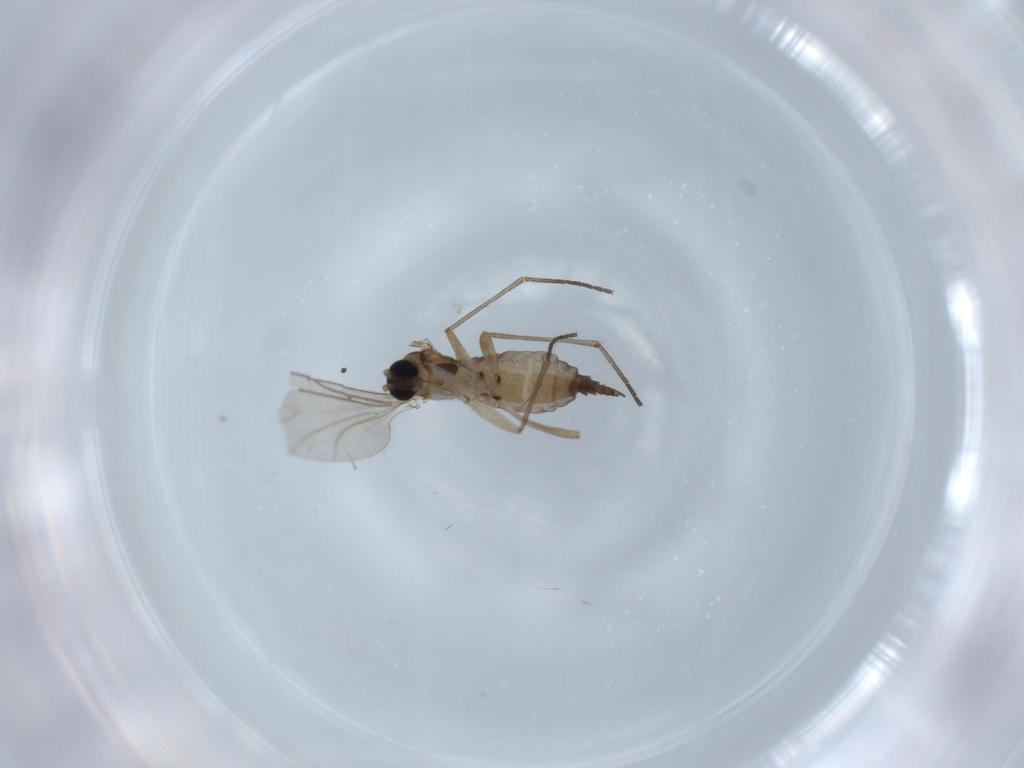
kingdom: Animalia
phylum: Arthropoda
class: Insecta
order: Diptera
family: Sciaridae
